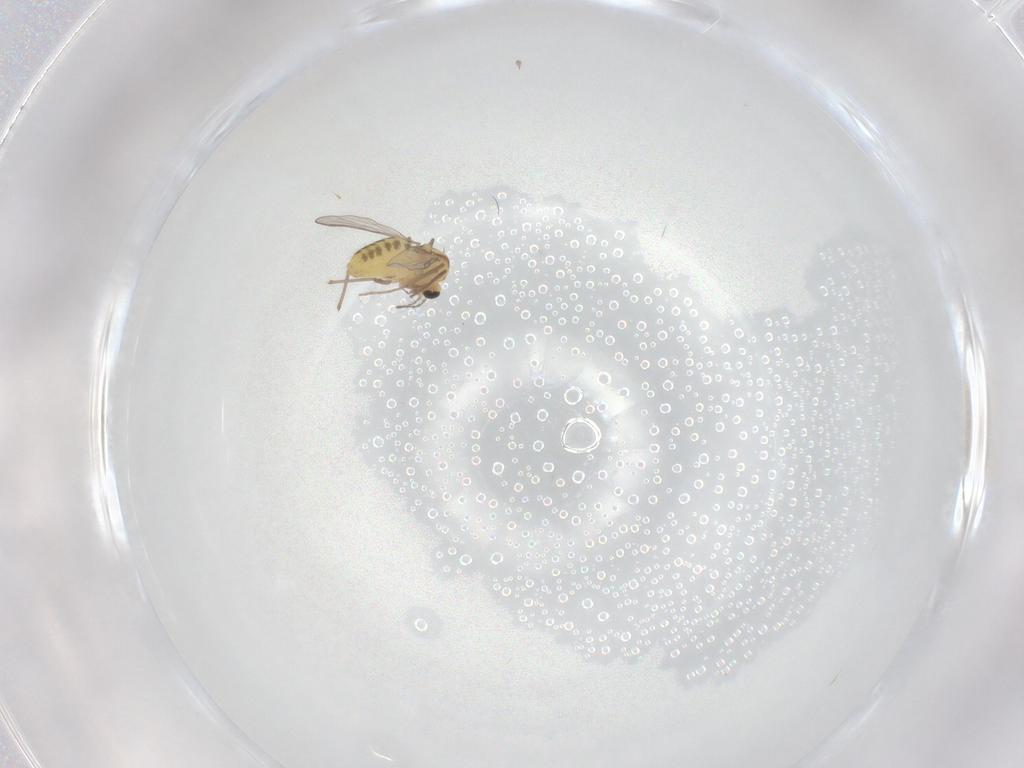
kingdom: Animalia
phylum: Arthropoda
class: Insecta
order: Diptera
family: Chironomidae
